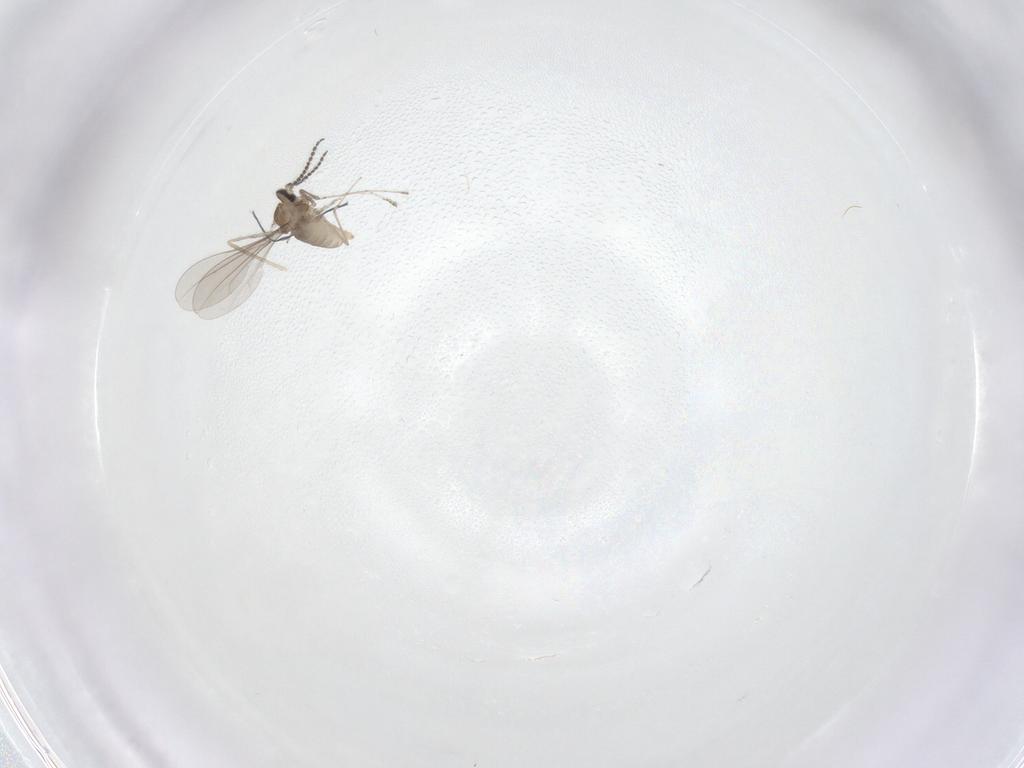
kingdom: Animalia
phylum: Arthropoda
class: Insecta
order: Diptera
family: Cecidomyiidae
